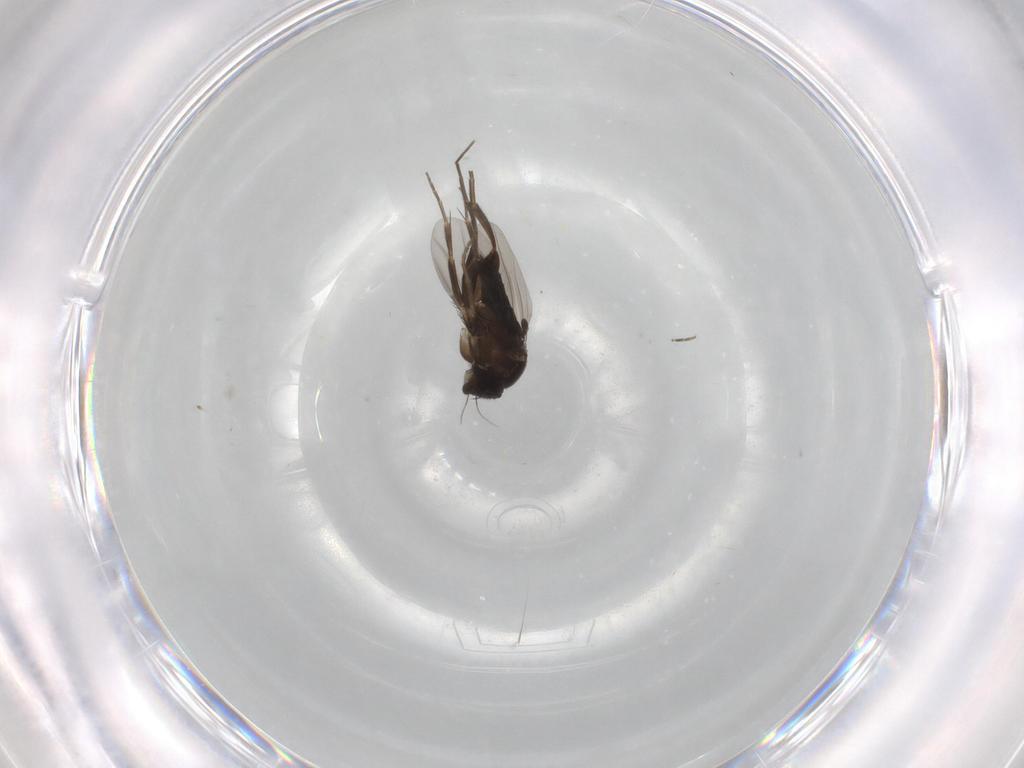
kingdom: Animalia
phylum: Arthropoda
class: Insecta
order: Diptera
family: Phoridae
